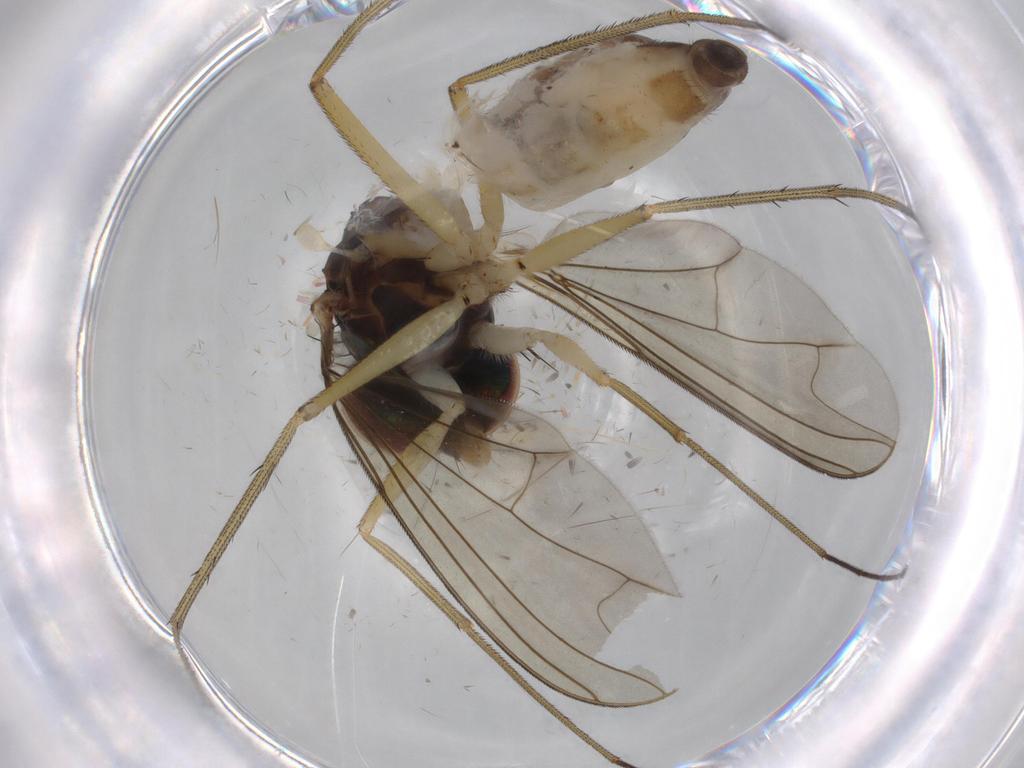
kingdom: Animalia
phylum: Arthropoda
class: Insecta
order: Diptera
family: Dolichopodidae
